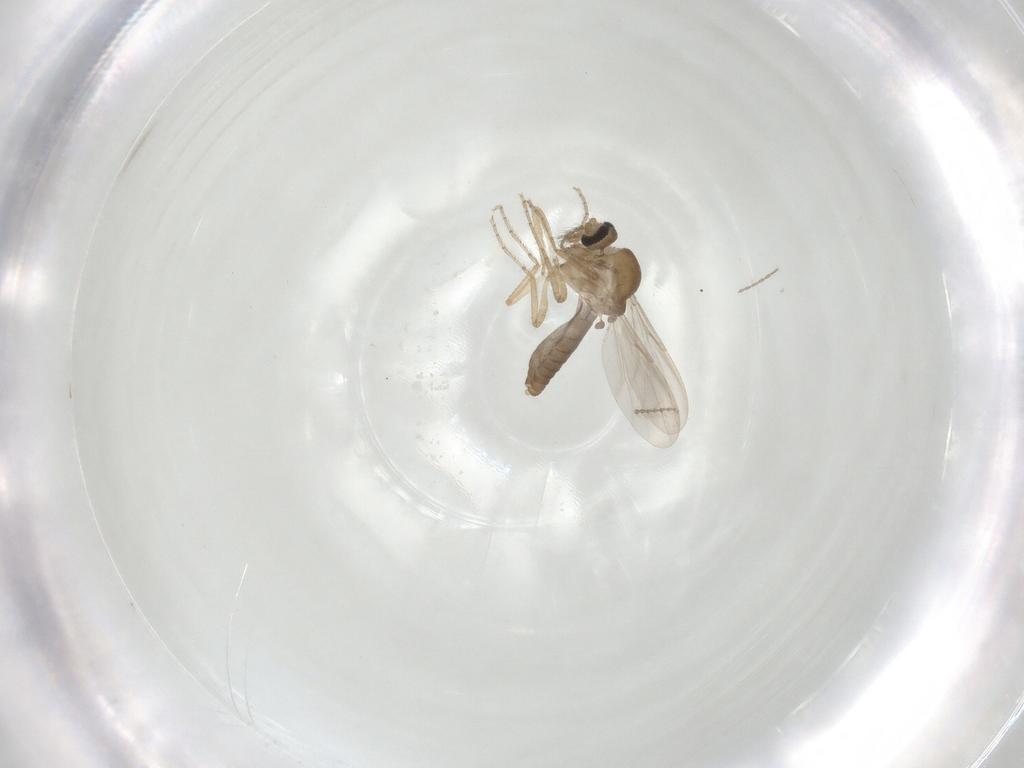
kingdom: Animalia
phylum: Arthropoda
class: Insecta
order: Diptera
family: Ceratopogonidae
